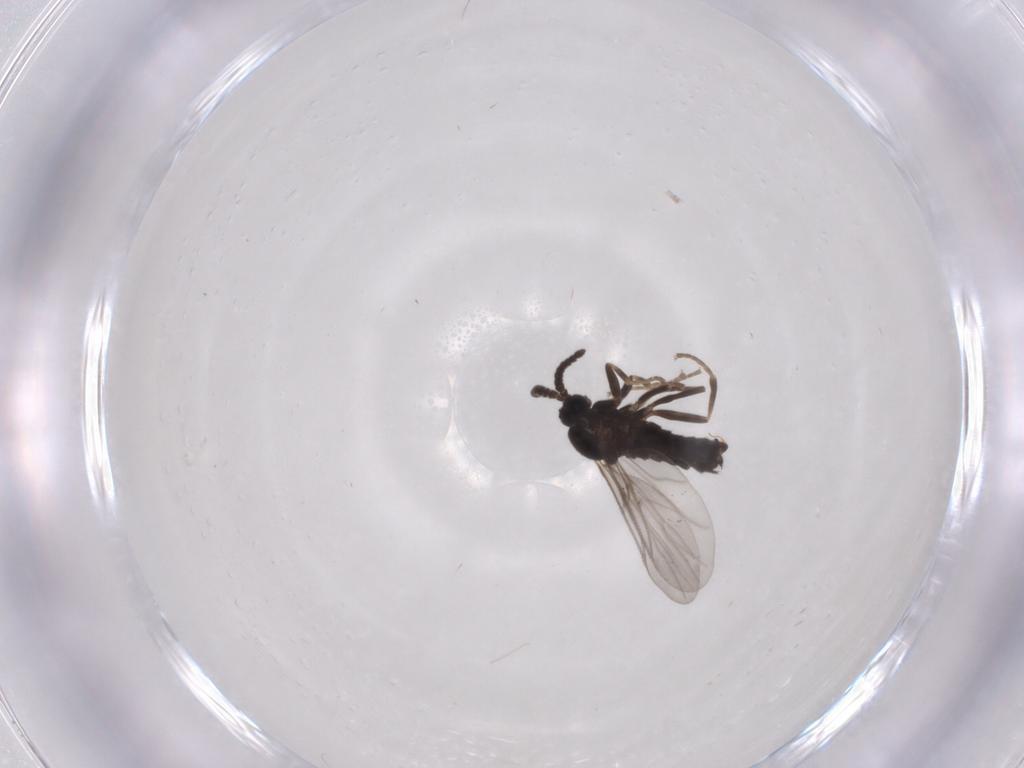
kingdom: Animalia
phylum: Arthropoda
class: Insecta
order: Diptera
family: Scatopsidae
